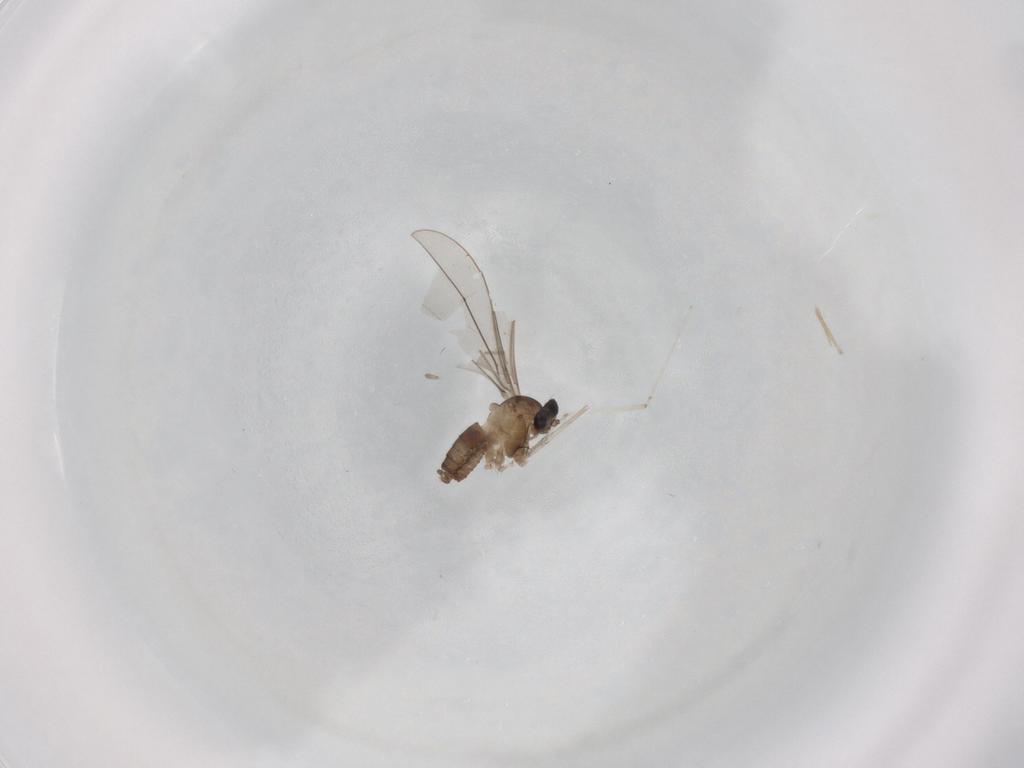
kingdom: Animalia
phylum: Arthropoda
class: Insecta
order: Diptera
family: Cecidomyiidae
